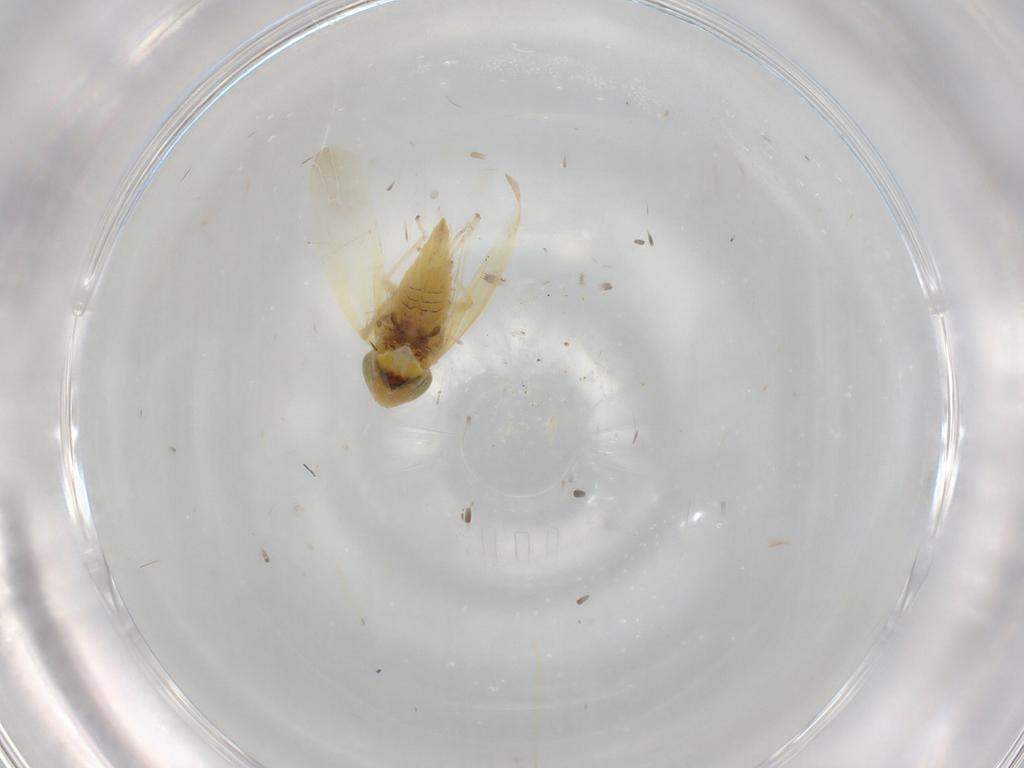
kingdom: Animalia
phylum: Arthropoda
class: Insecta
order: Hemiptera
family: Cicadellidae
